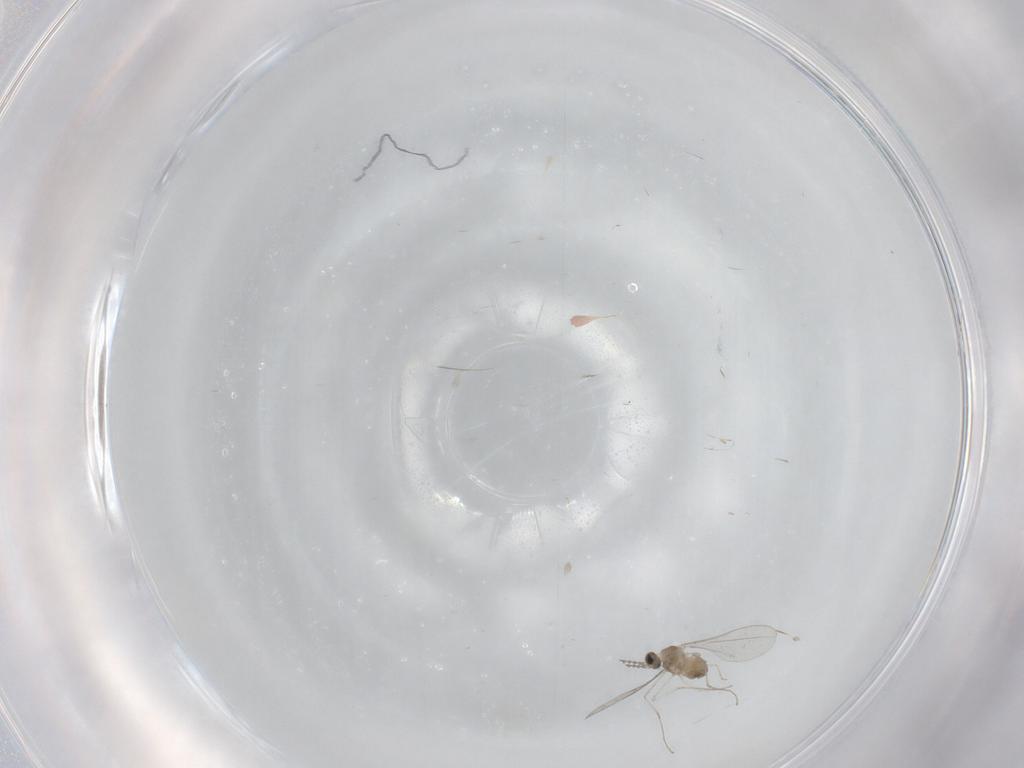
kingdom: Animalia
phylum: Arthropoda
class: Insecta
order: Diptera
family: Cecidomyiidae
